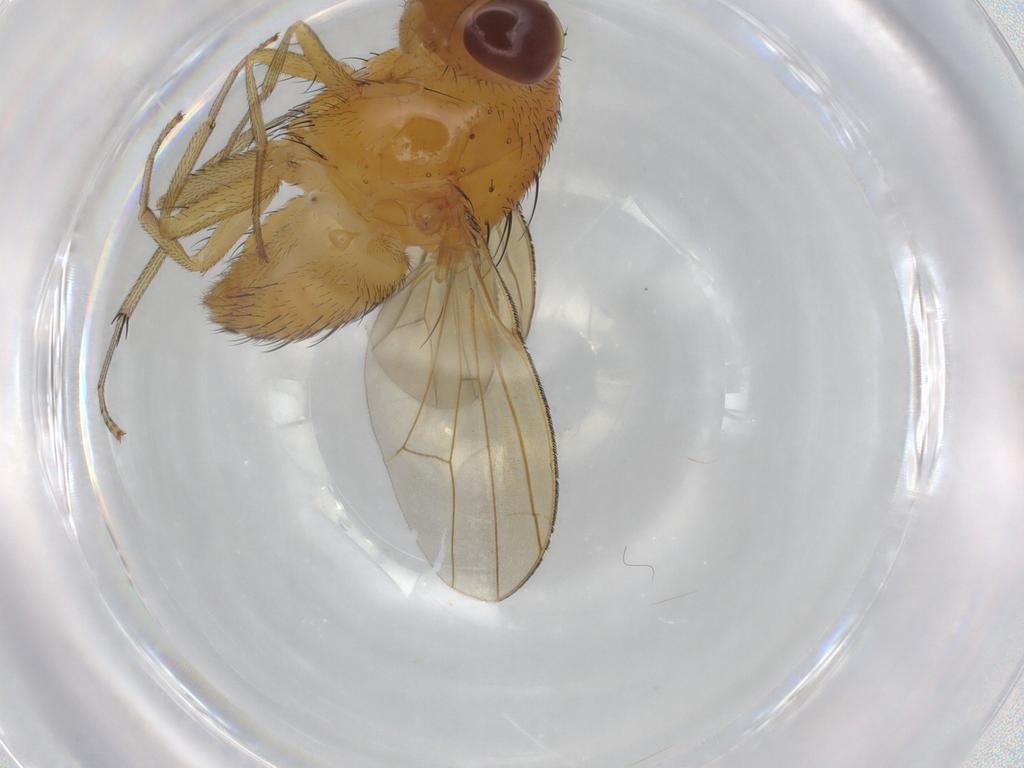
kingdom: Animalia
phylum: Arthropoda
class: Insecta
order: Diptera
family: Lauxaniidae
